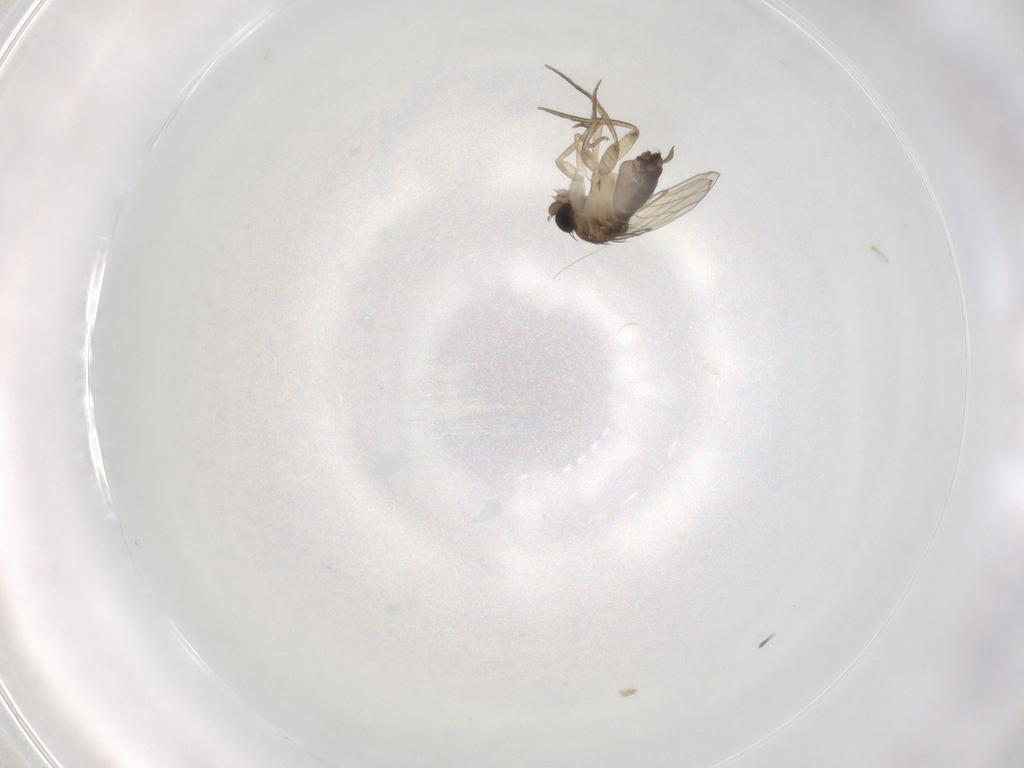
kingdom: Animalia
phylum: Arthropoda
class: Insecta
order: Diptera
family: Phoridae
